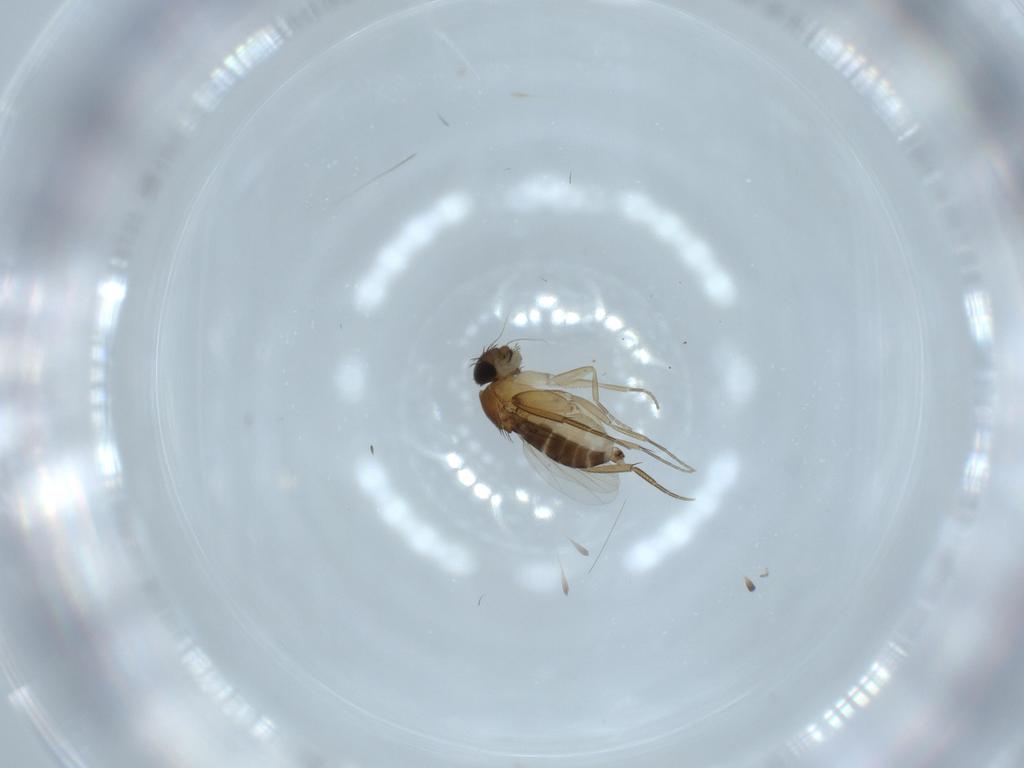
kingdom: Animalia
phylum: Arthropoda
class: Insecta
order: Diptera
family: Phoridae
